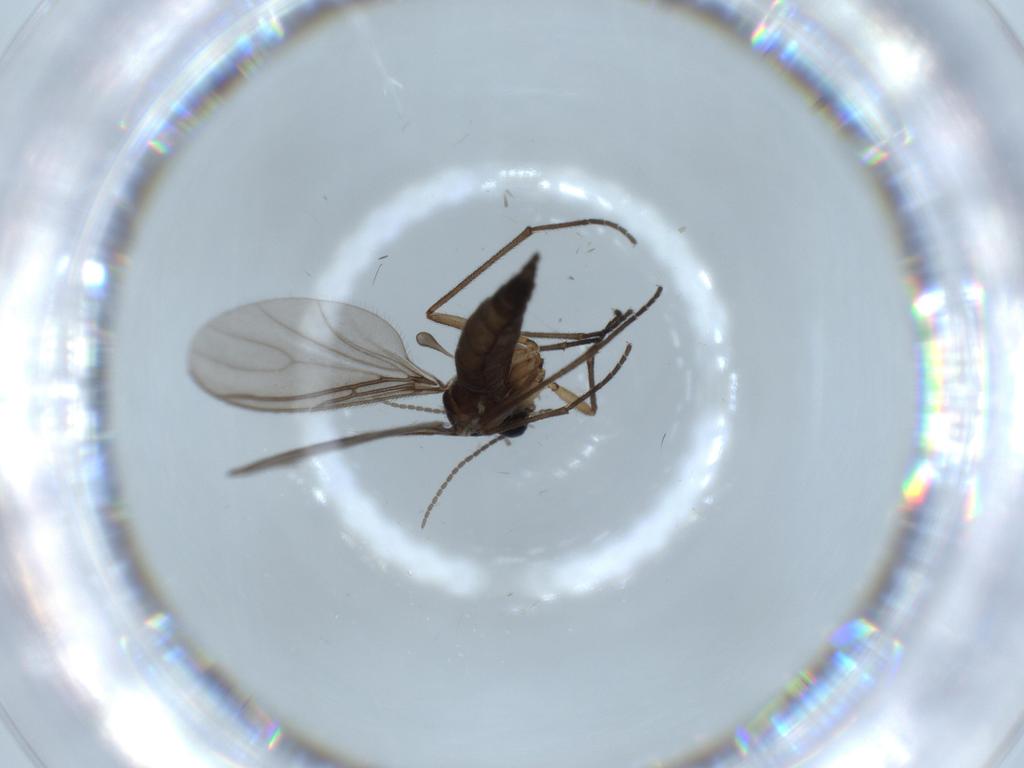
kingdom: Animalia
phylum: Arthropoda
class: Insecta
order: Diptera
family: Sciaridae
